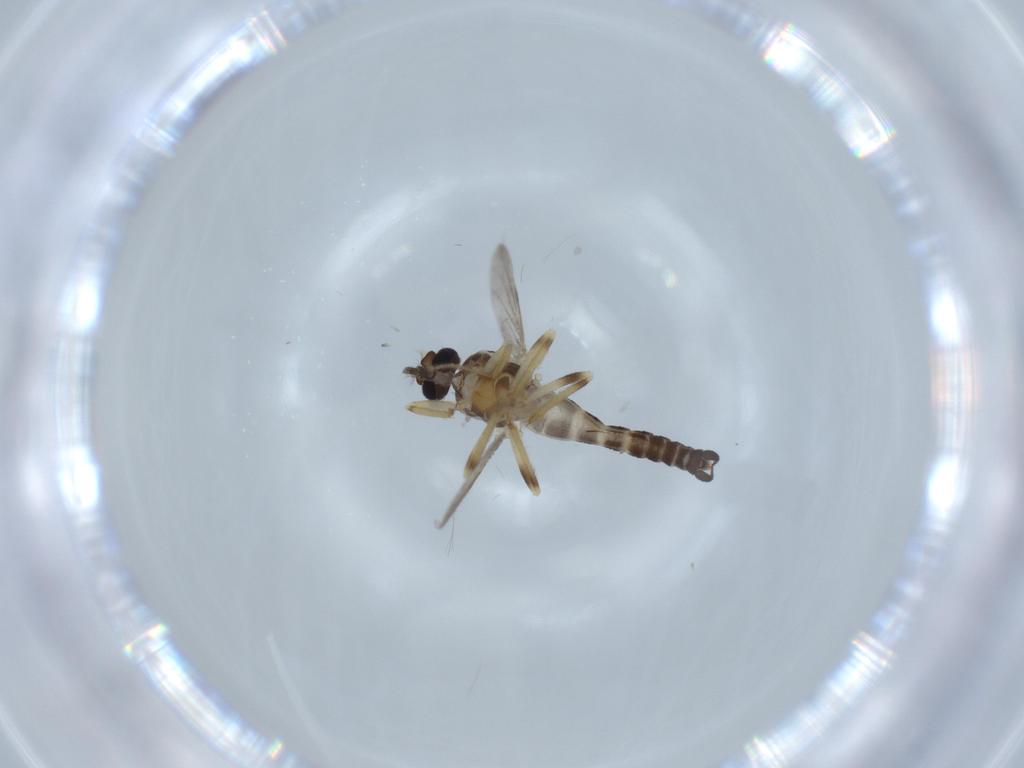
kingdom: Animalia
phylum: Arthropoda
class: Insecta
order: Diptera
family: Ceratopogonidae
